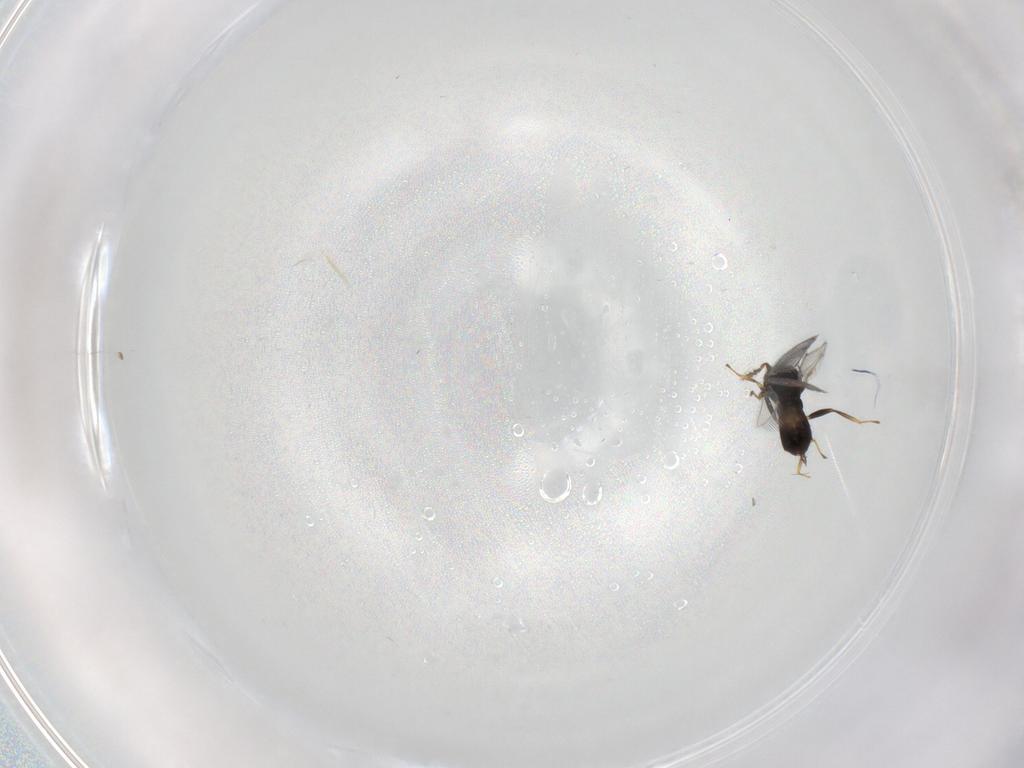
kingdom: Animalia
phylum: Arthropoda
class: Insecta
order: Hymenoptera
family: Eulophidae
